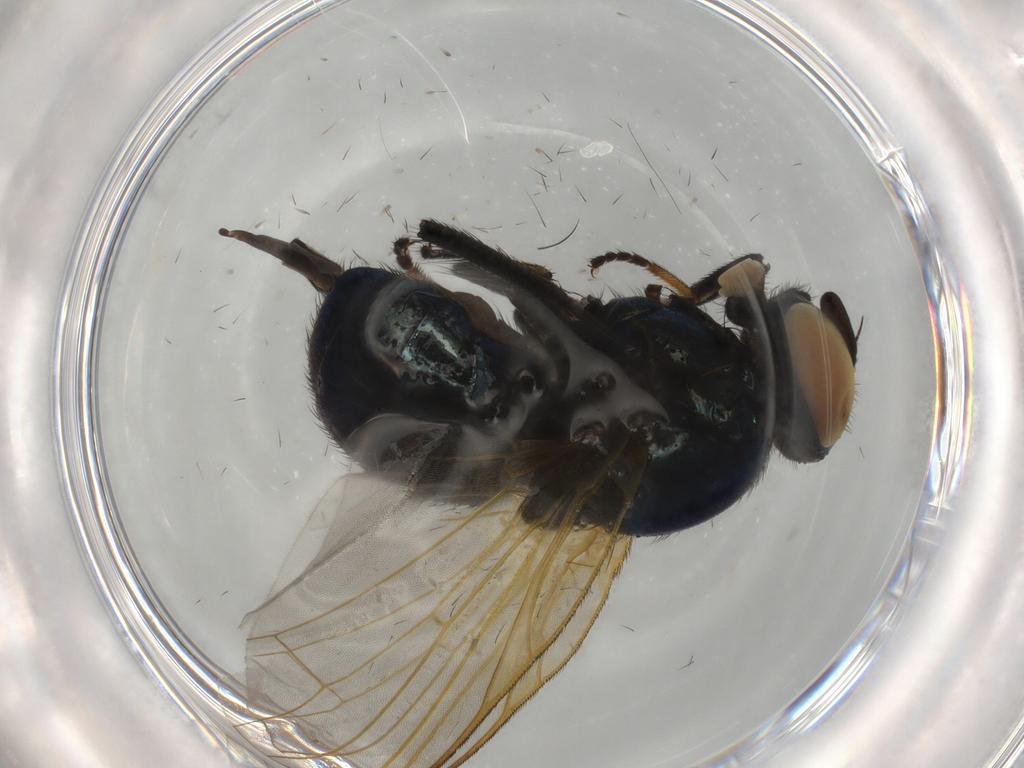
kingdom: Animalia
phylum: Arthropoda
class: Insecta
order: Diptera
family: Lonchaeidae
